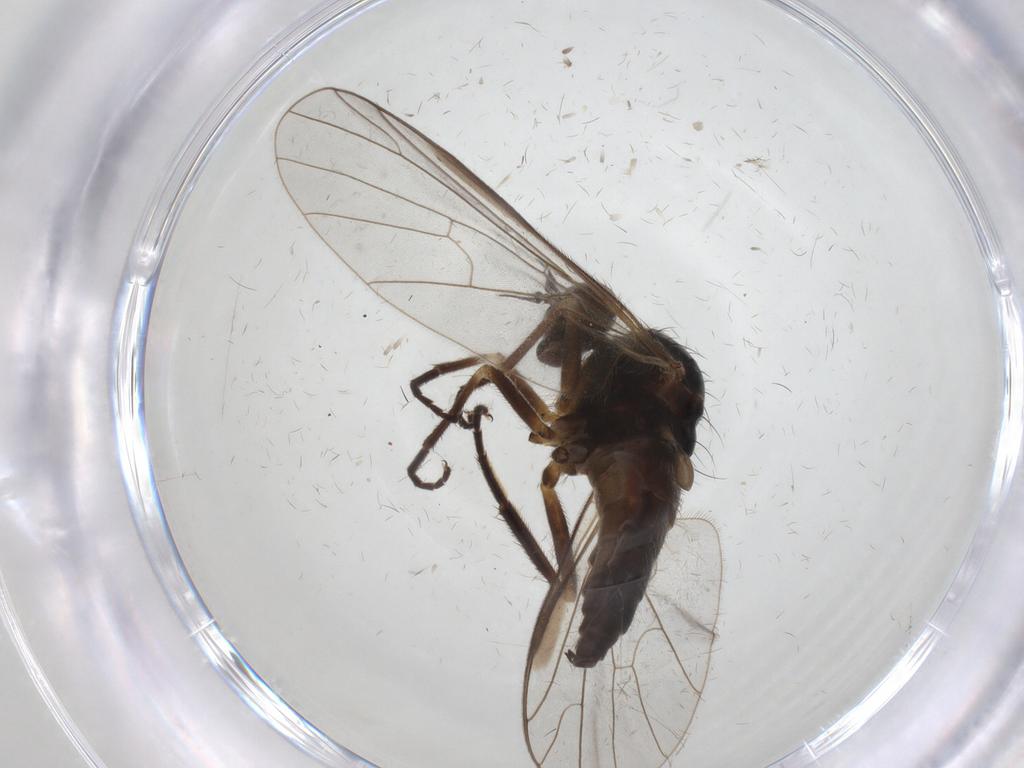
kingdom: Animalia
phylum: Arthropoda
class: Insecta
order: Diptera
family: Empididae
